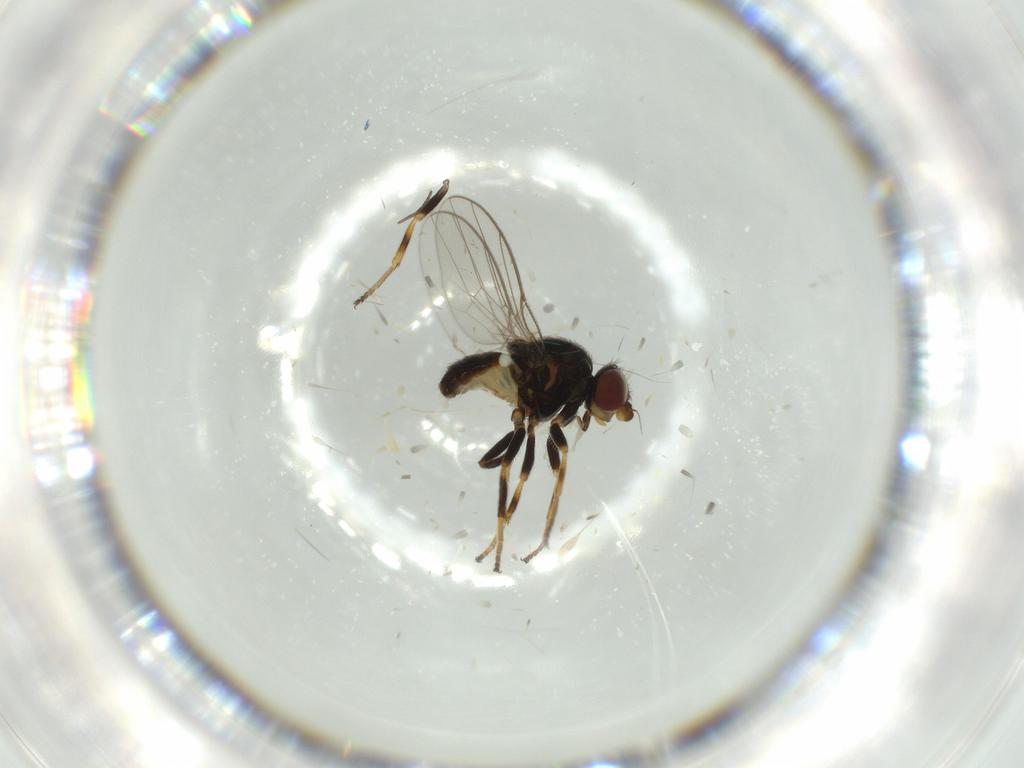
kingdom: Animalia
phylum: Arthropoda
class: Insecta
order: Diptera
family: Chloropidae
